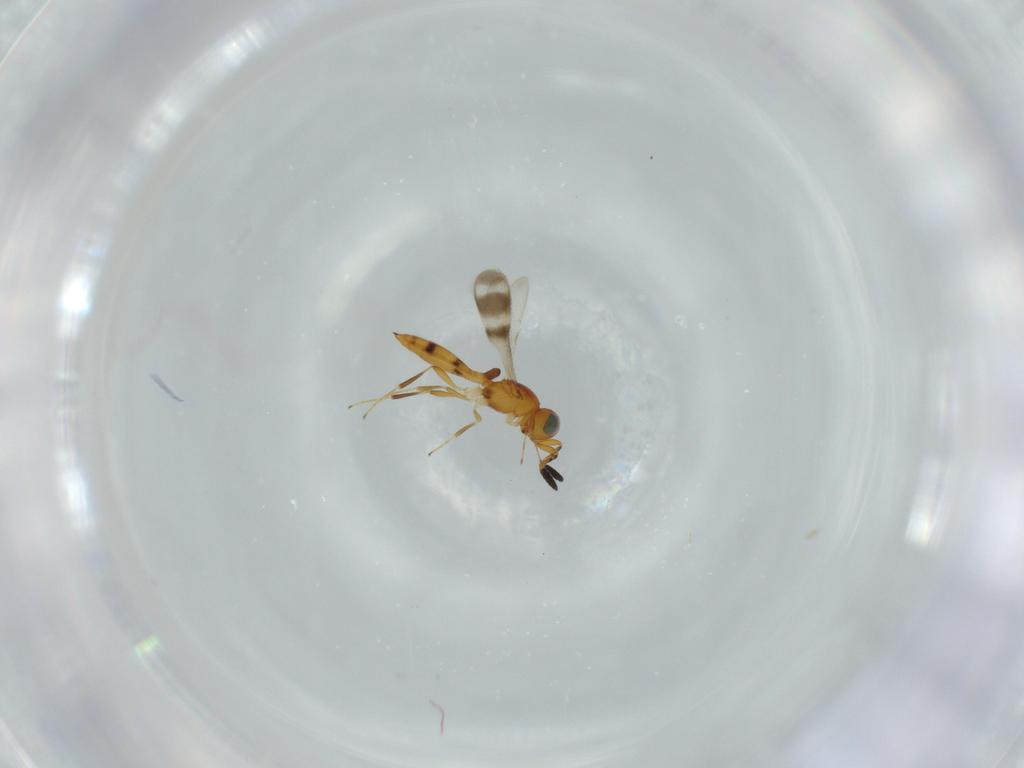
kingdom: Animalia
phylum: Arthropoda
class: Insecta
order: Hymenoptera
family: Scelionidae
